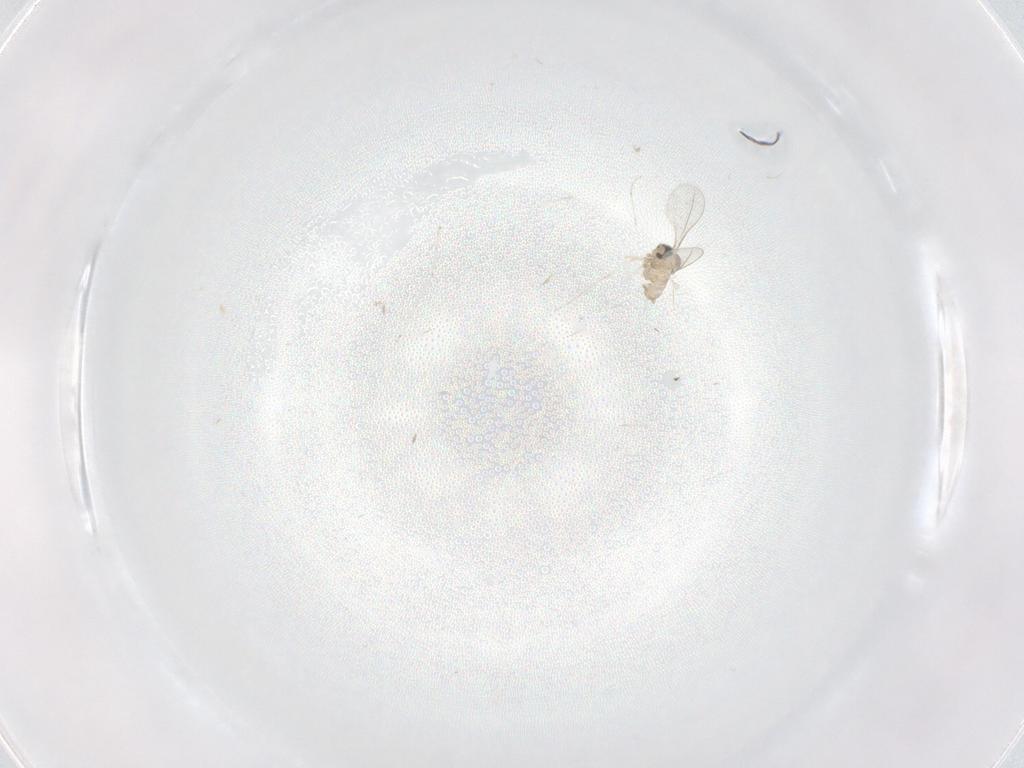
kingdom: Animalia
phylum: Arthropoda
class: Insecta
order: Diptera
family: Cecidomyiidae
